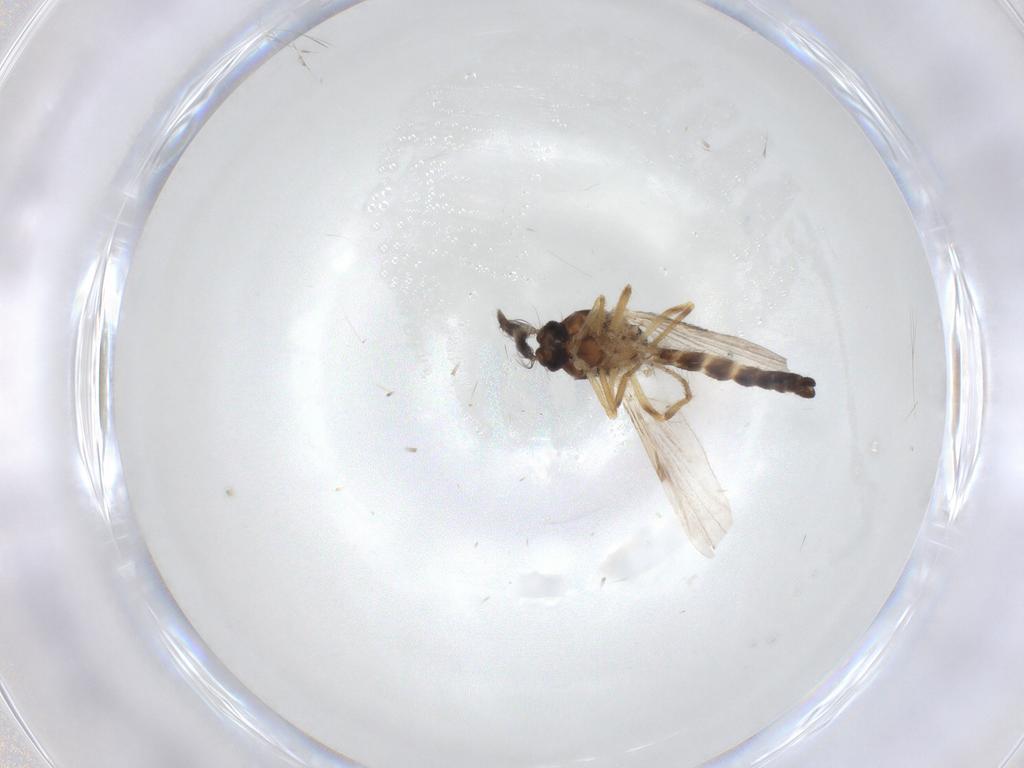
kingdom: Animalia
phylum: Arthropoda
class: Insecta
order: Diptera
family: Ceratopogonidae
